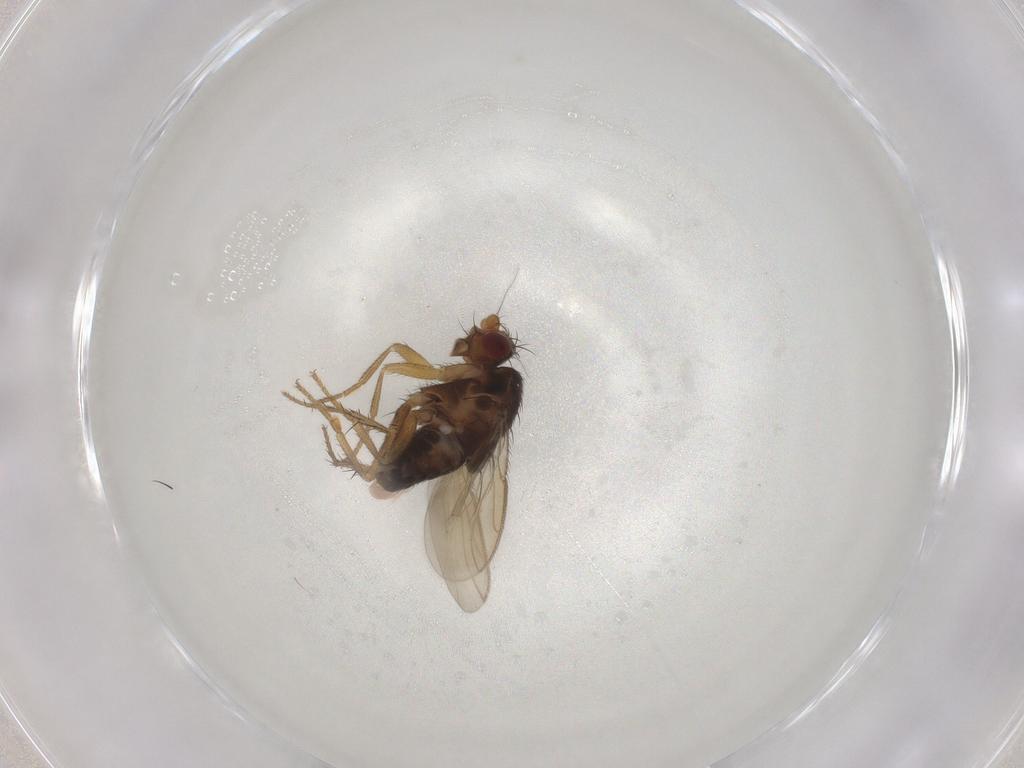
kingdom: Animalia
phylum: Arthropoda
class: Insecta
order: Diptera
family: Sphaeroceridae
